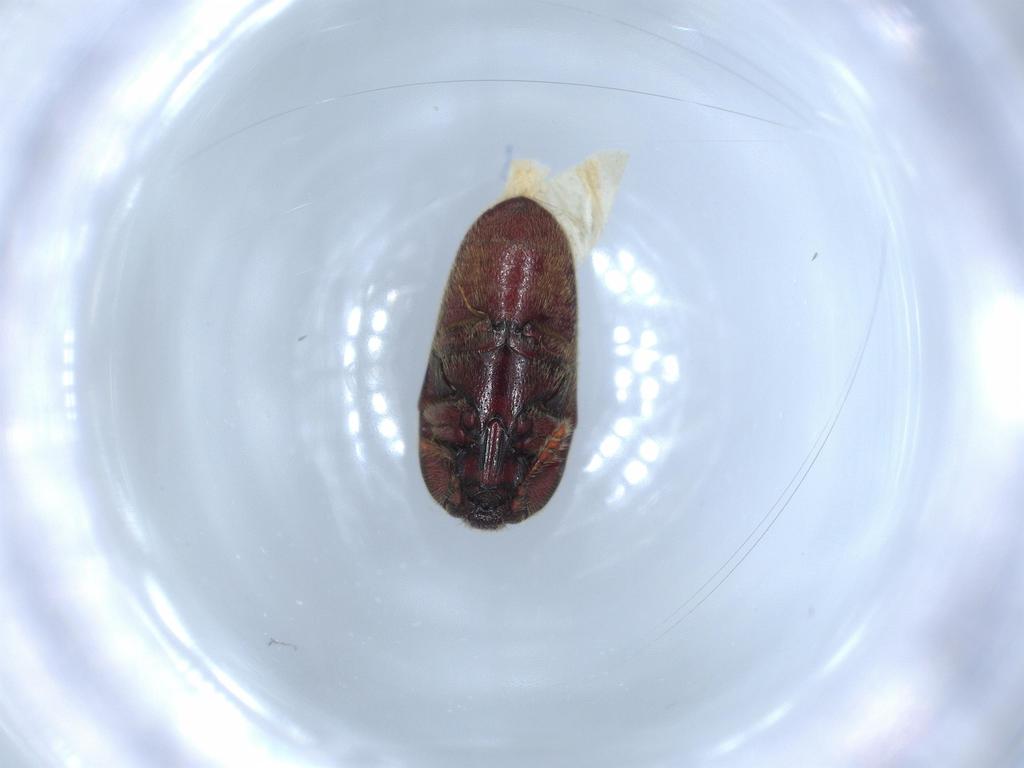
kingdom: Animalia
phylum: Arthropoda
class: Insecta
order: Coleoptera
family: Throscidae
